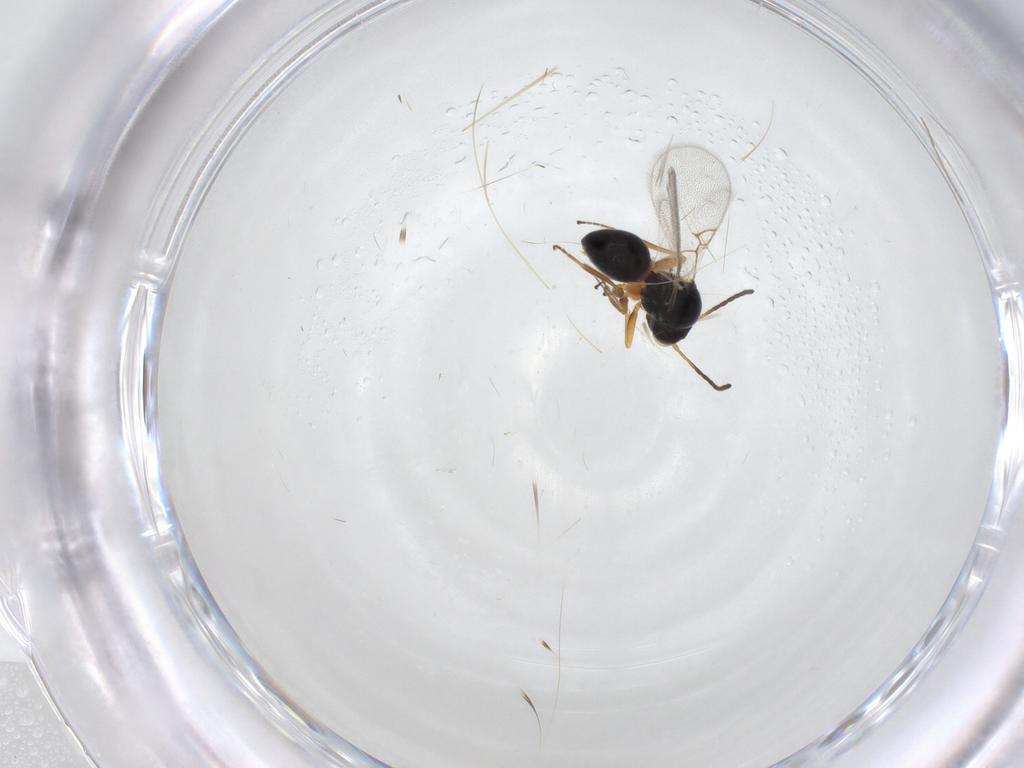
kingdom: Animalia
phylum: Arthropoda
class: Insecta
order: Hymenoptera
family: Figitidae
